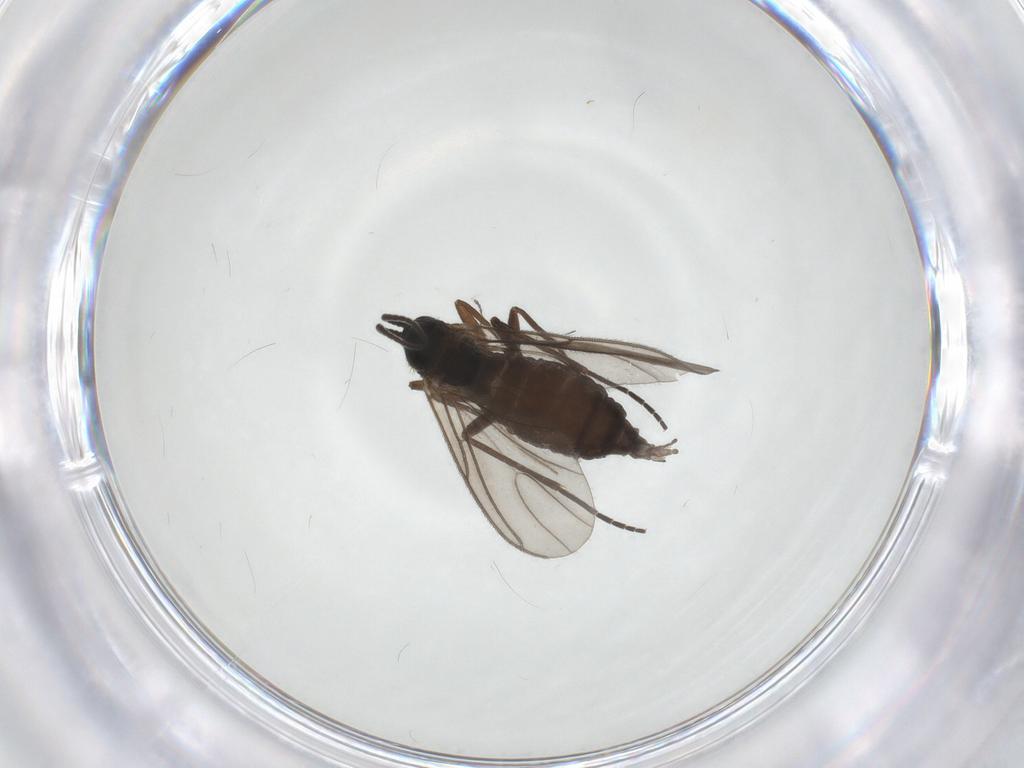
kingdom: Animalia
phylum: Arthropoda
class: Insecta
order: Diptera
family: Sciaridae
